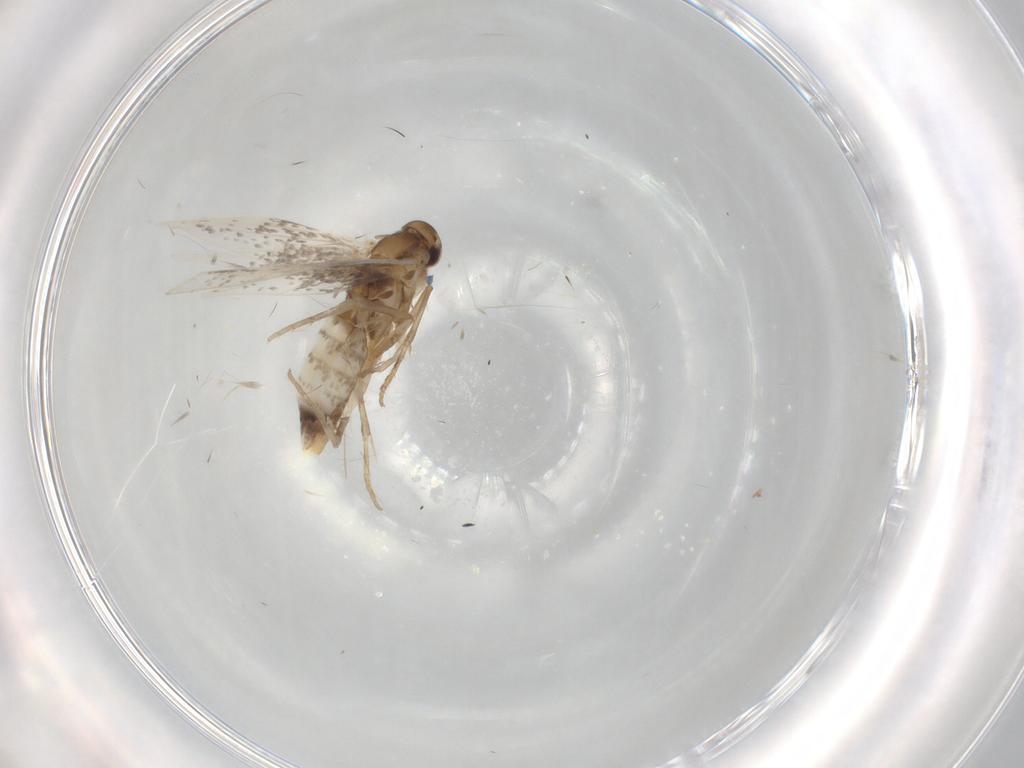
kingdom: Animalia
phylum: Arthropoda
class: Insecta
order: Lepidoptera
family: Elachistidae
